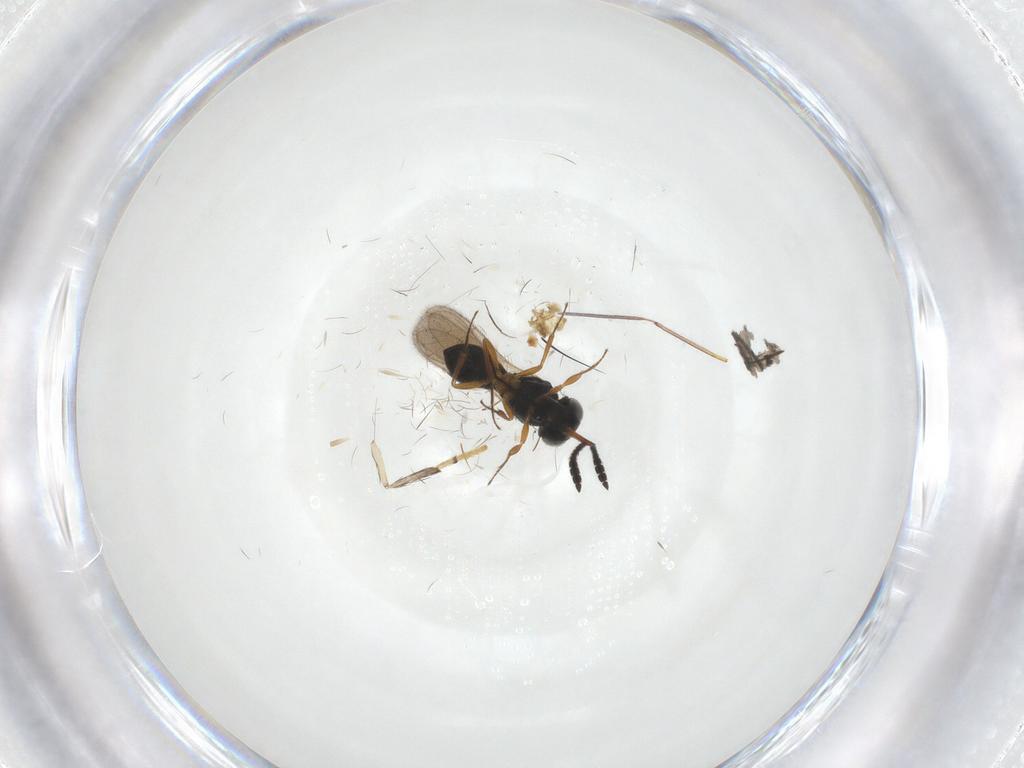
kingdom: Animalia
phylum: Arthropoda
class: Insecta
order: Hymenoptera
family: Scelionidae
